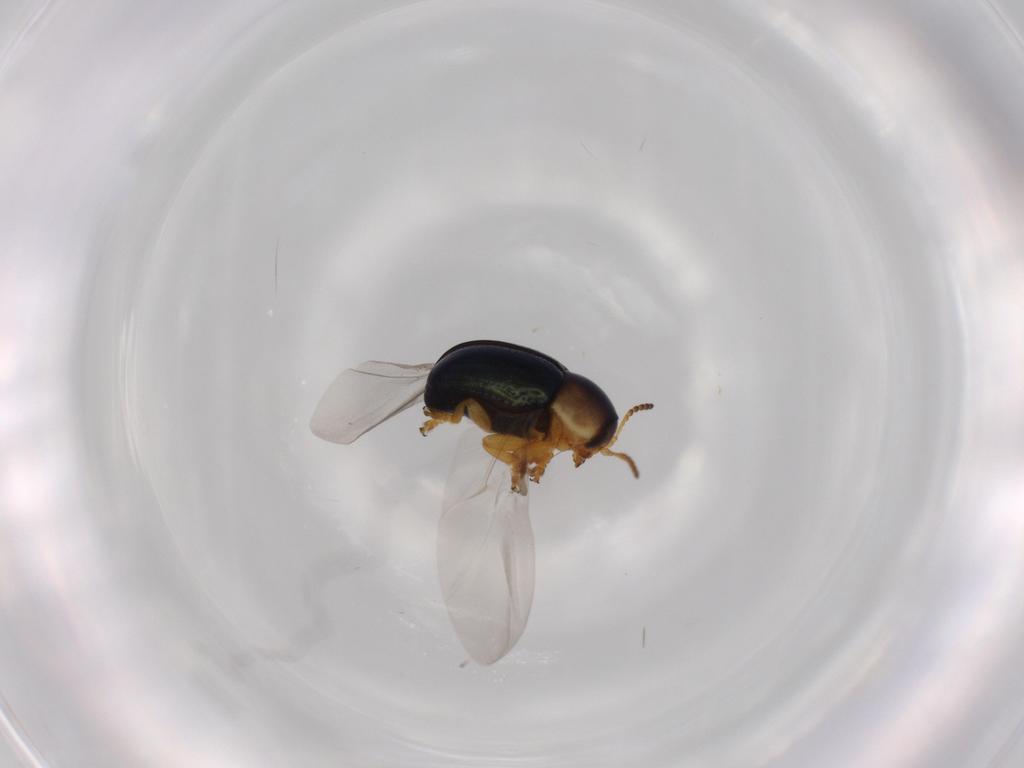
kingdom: Animalia
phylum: Arthropoda
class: Insecta
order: Coleoptera
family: Chrysomelidae
